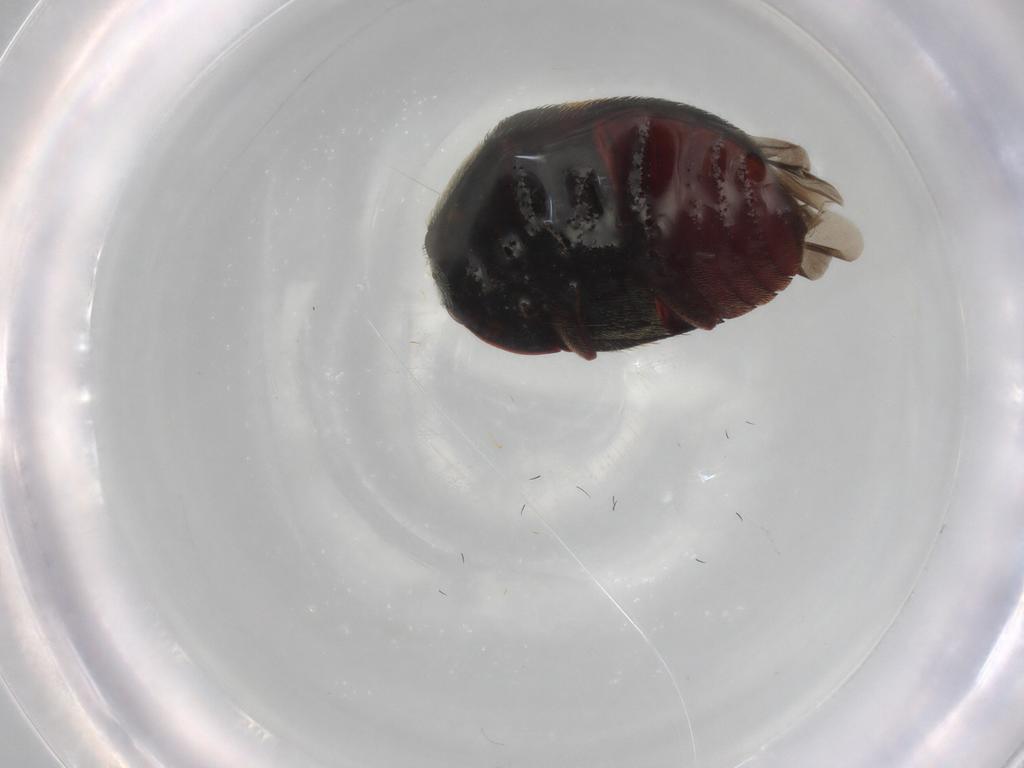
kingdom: Animalia
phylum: Arthropoda
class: Insecta
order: Coleoptera
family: Dermestidae
